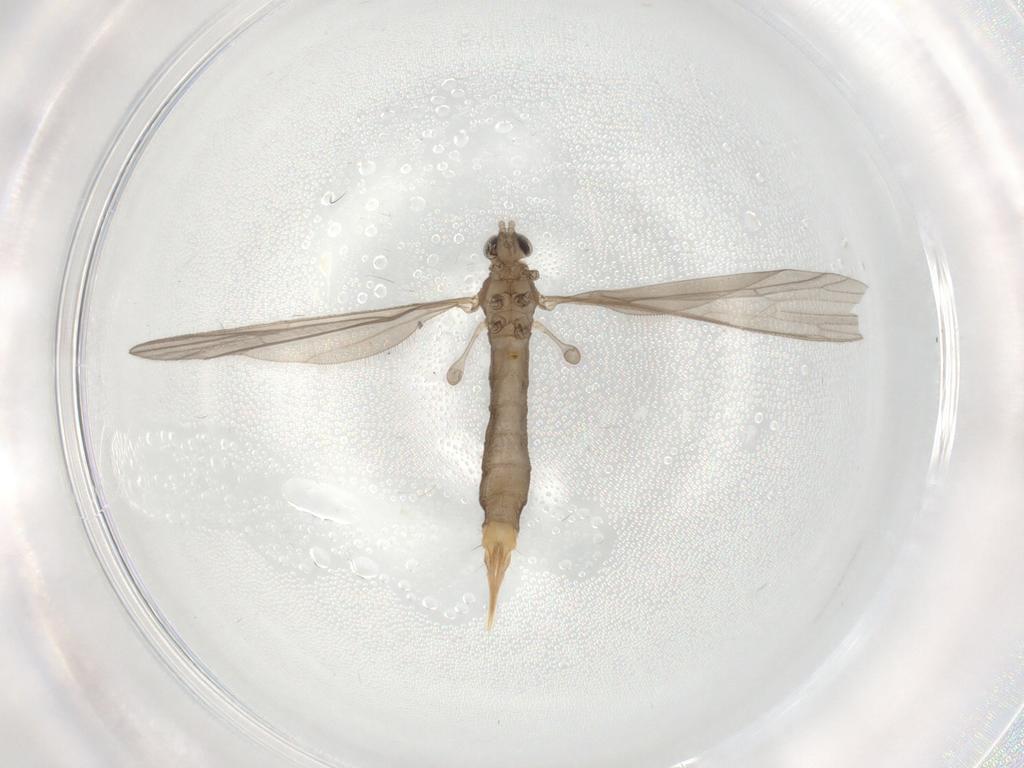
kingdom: Animalia
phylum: Arthropoda
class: Insecta
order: Diptera
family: Limoniidae
